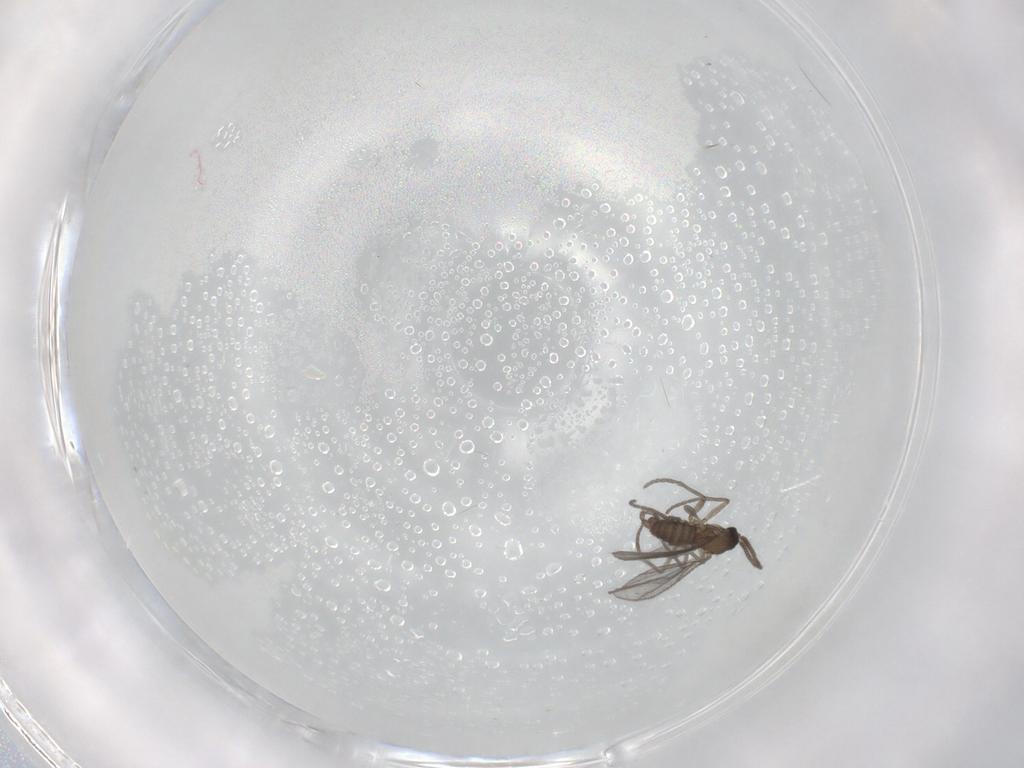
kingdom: Animalia
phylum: Arthropoda
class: Insecta
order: Diptera
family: Sciaridae
